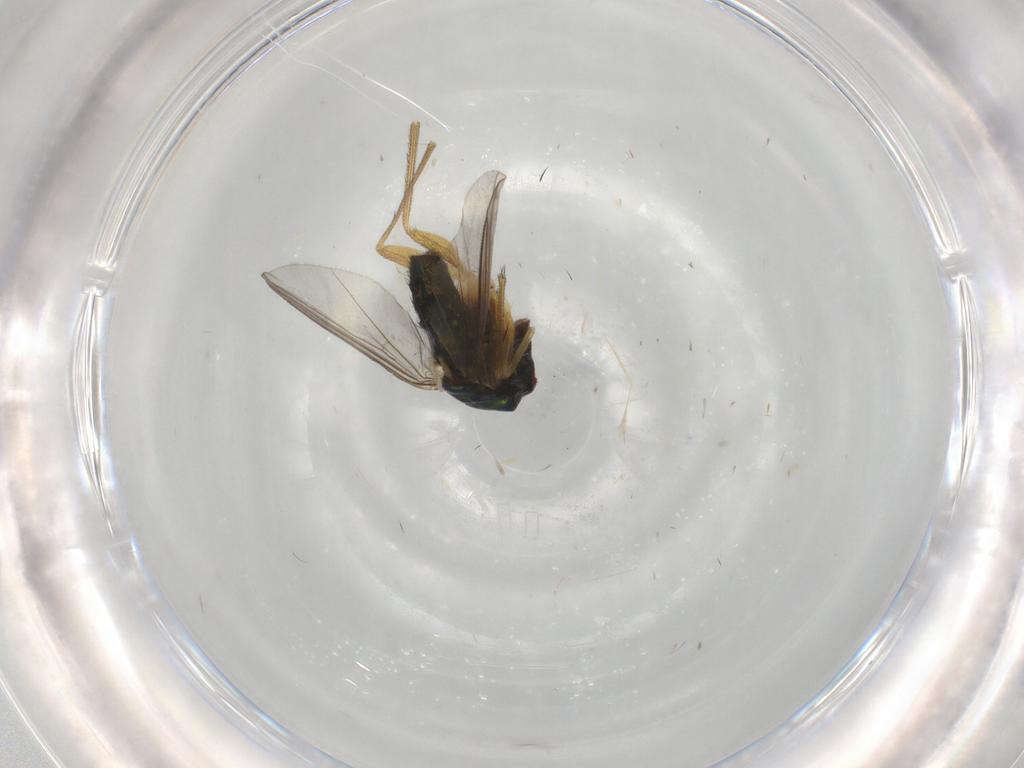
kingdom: Animalia
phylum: Arthropoda
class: Insecta
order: Diptera
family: Dolichopodidae
